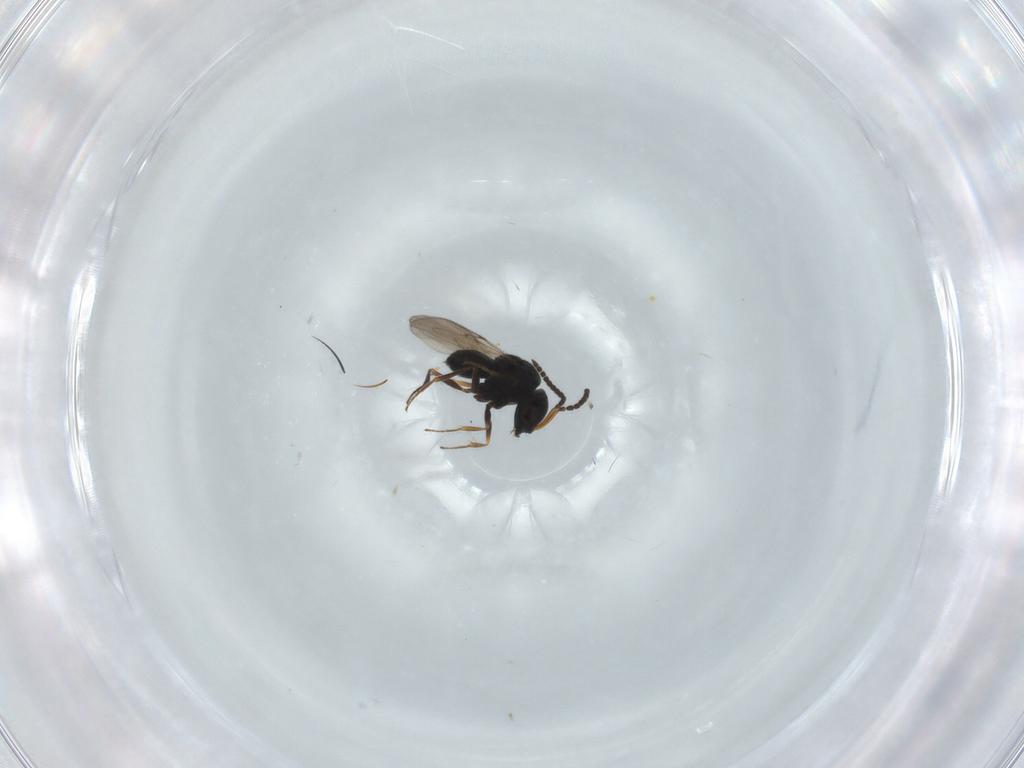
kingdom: Animalia
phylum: Arthropoda
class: Insecta
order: Hymenoptera
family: Scelionidae
